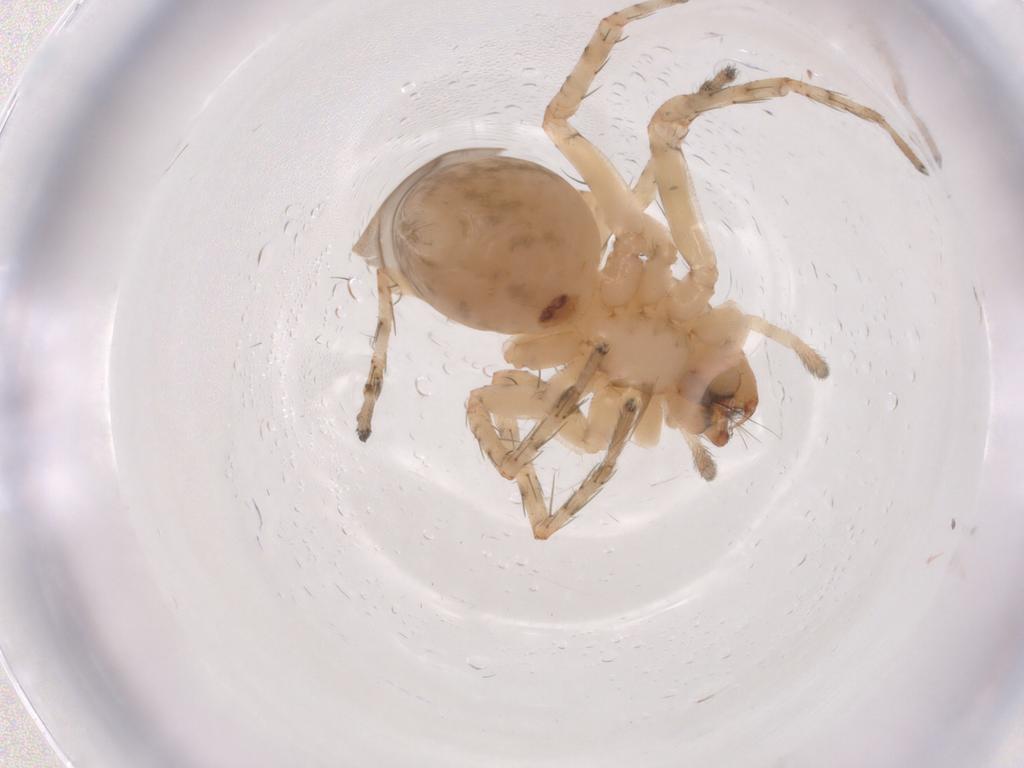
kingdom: Animalia
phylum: Arthropoda
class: Arachnida
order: Araneae
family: Anyphaenidae
